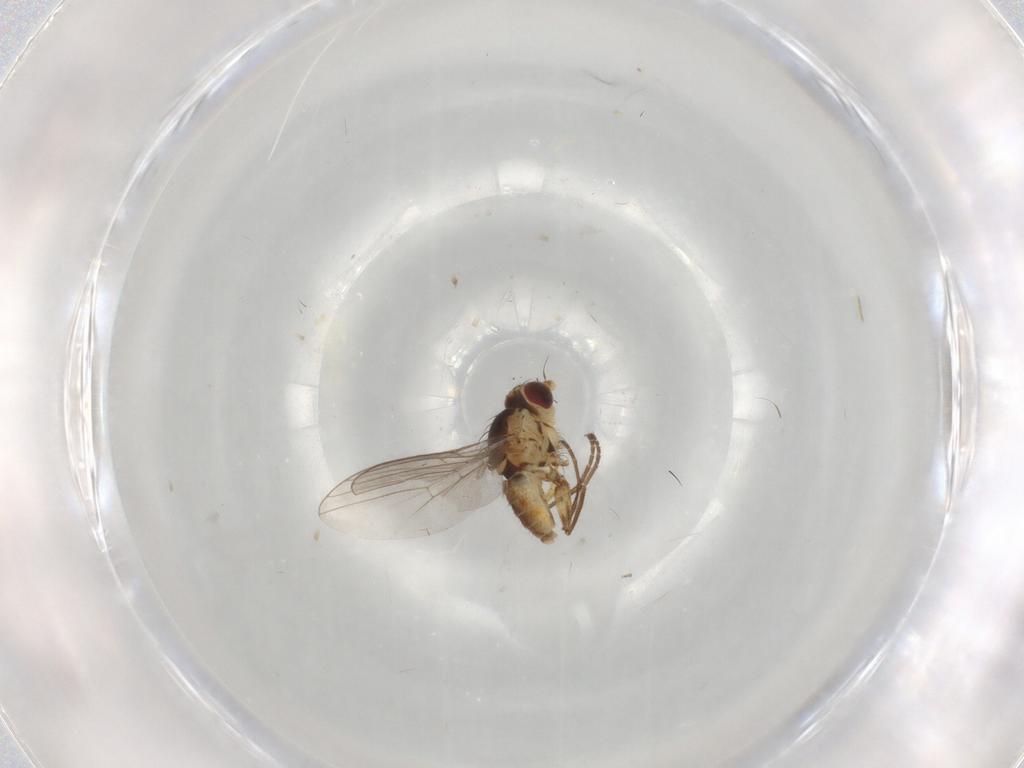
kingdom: Animalia
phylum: Arthropoda
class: Insecta
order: Diptera
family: Agromyzidae
